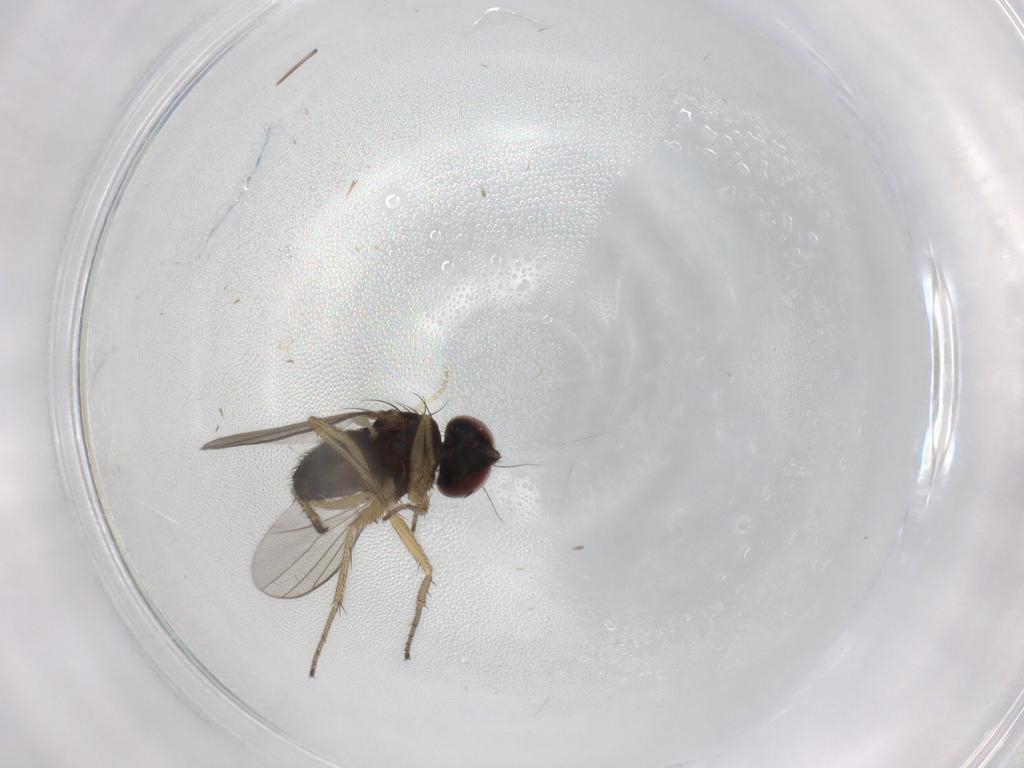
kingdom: Animalia
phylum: Arthropoda
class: Insecta
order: Diptera
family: Dolichopodidae
